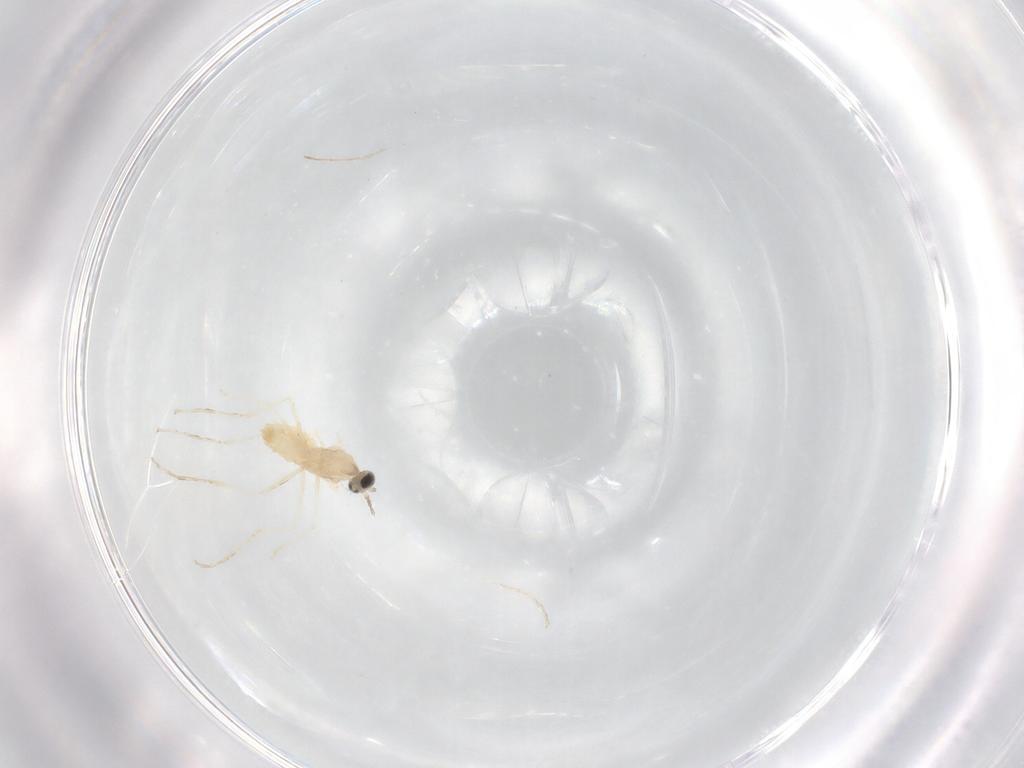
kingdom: Animalia
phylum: Arthropoda
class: Insecta
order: Diptera
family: Cecidomyiidae
